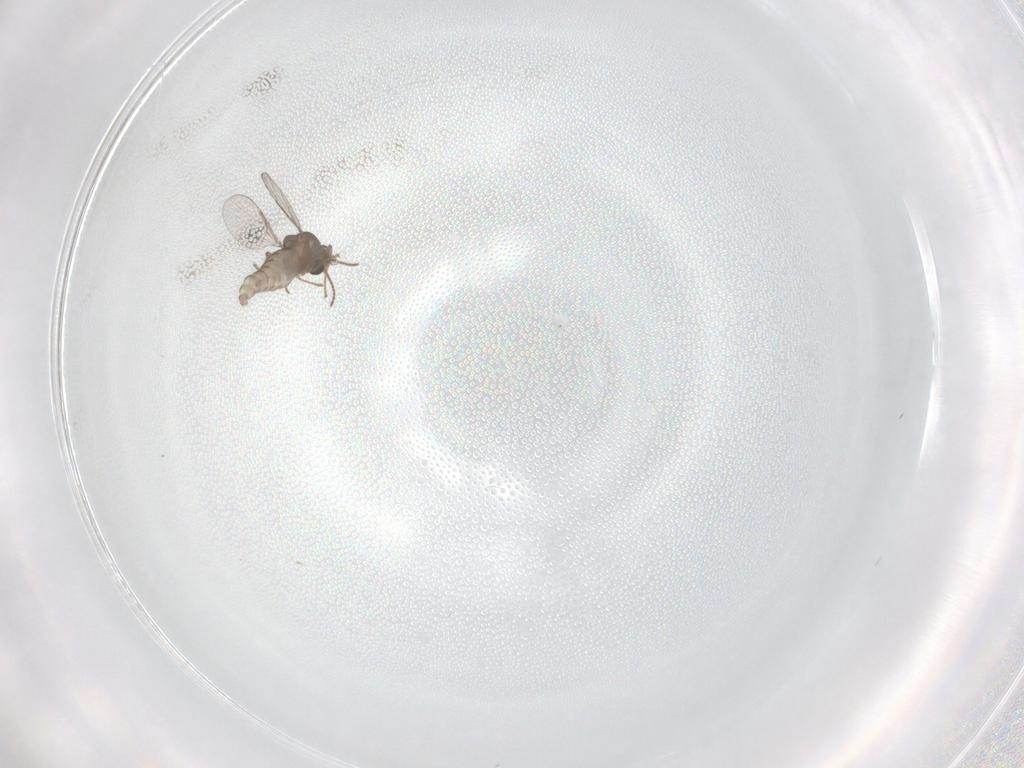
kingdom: Animalia
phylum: Arthropoda
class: Insecta
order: Diptera
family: Ceratopogonidae
